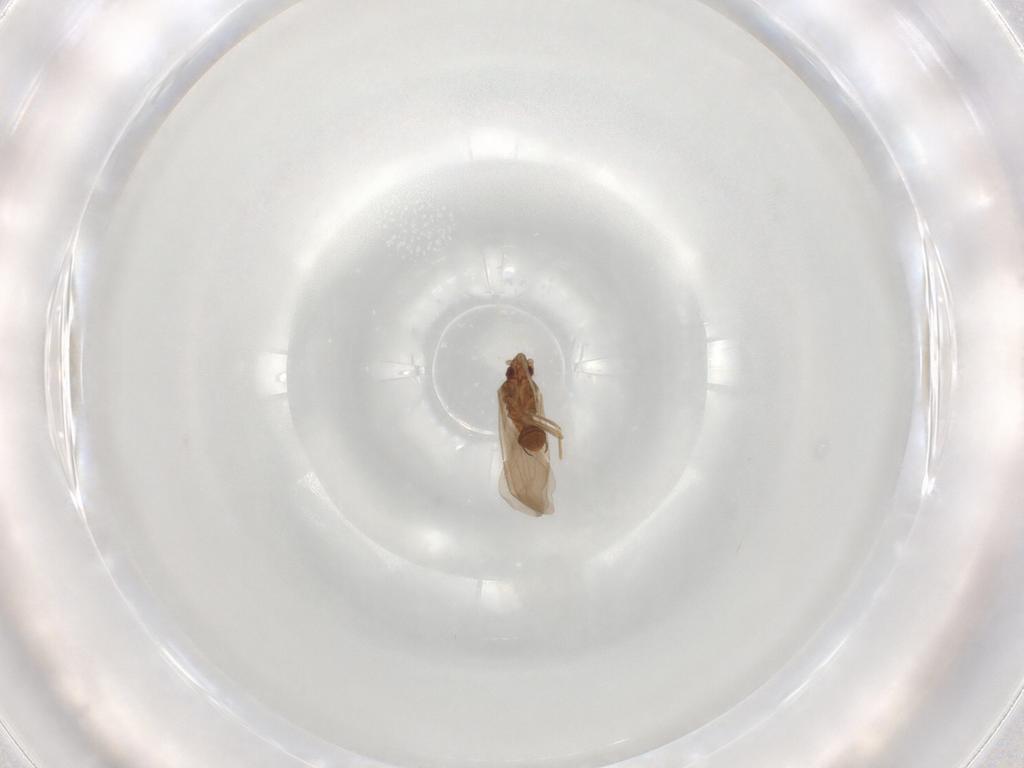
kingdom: Animalia
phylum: Arthropoda
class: Insecta
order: Hemiptera
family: Ceratocombidae
